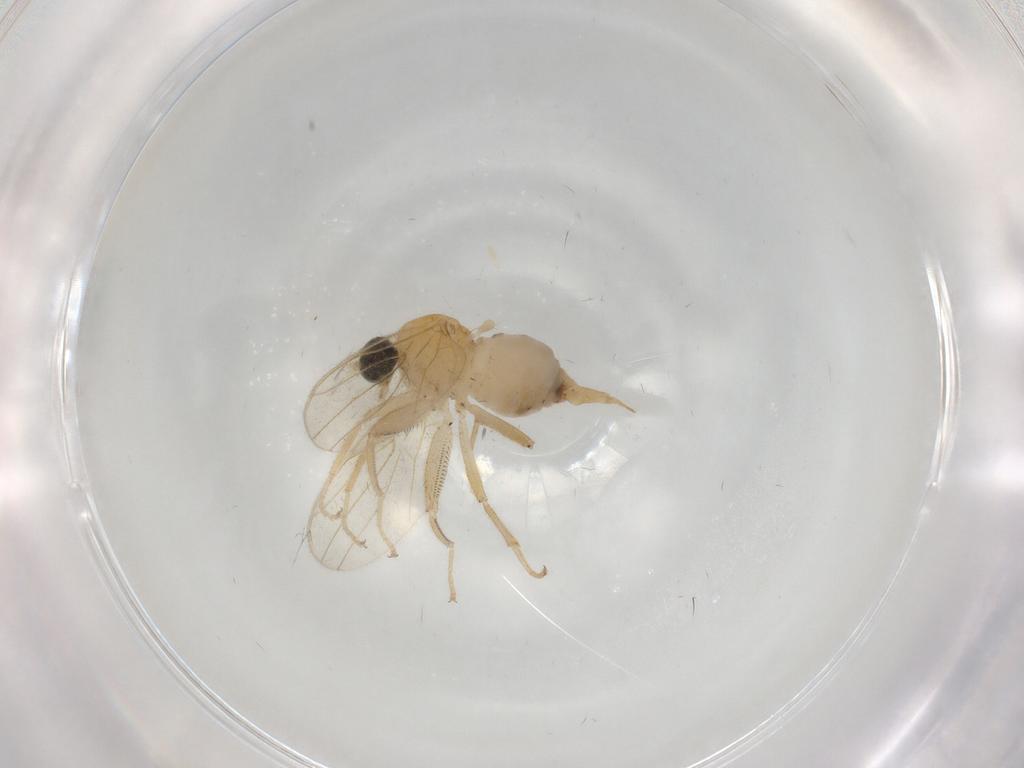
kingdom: Animalia
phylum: Arthropoda
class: Insecta
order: Diptera
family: Hybotidae
